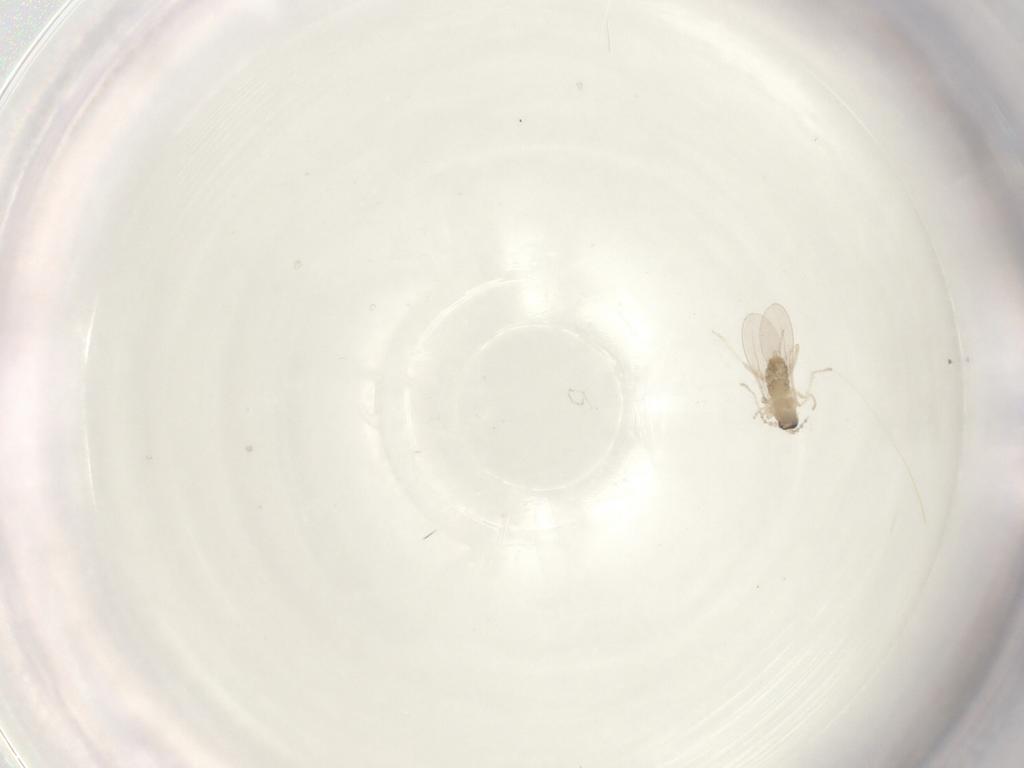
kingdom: Animalia
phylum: Arthropoda
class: Insecta
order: Diptera
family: Cecidomyiidae
